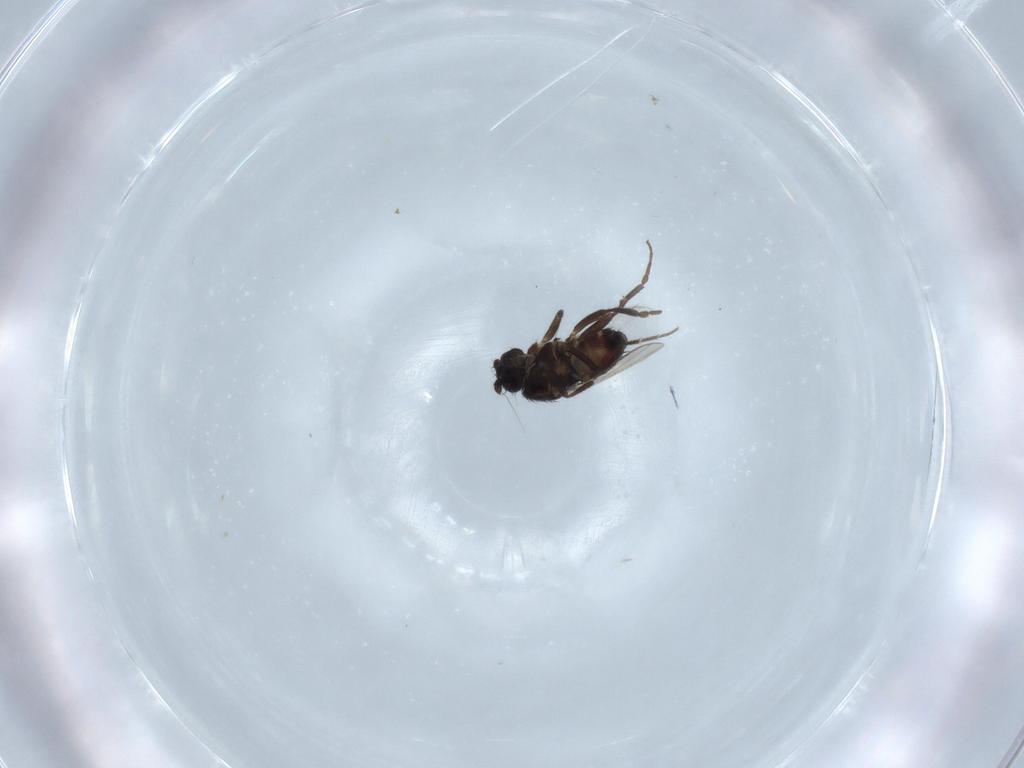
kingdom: Animalia
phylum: Arthropoda
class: Insecta
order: Diptera
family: Sphaeroceridae
